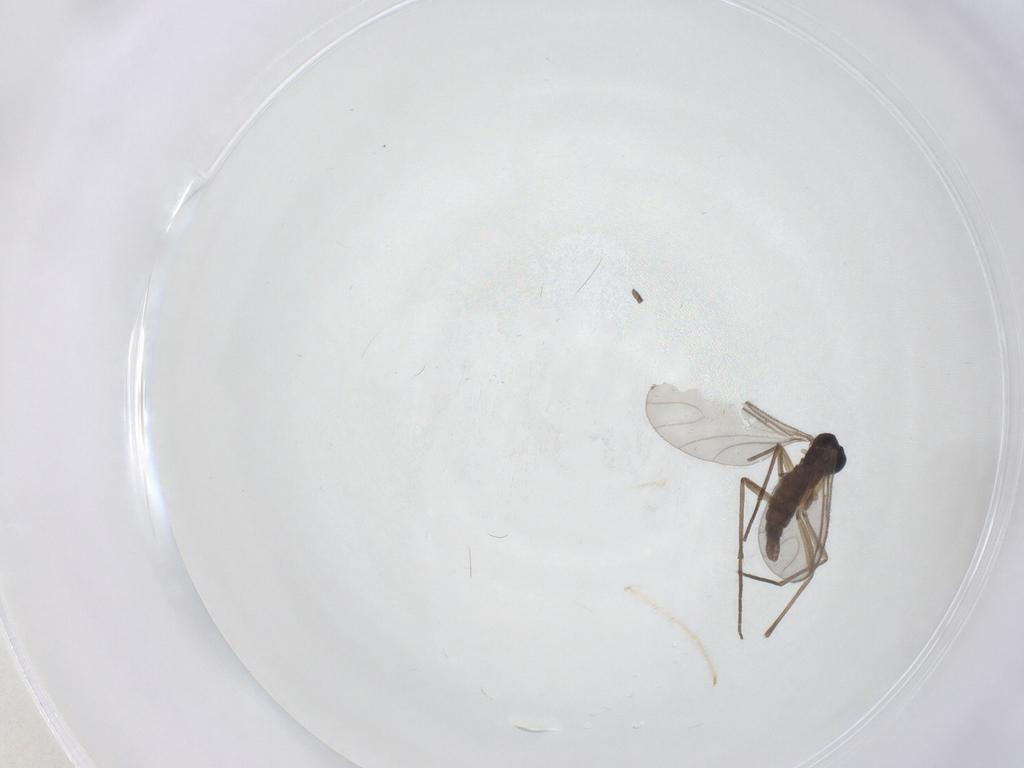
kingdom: Animalia
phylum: Arthropoda
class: Insecta
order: Diptera
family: Sciaridae
